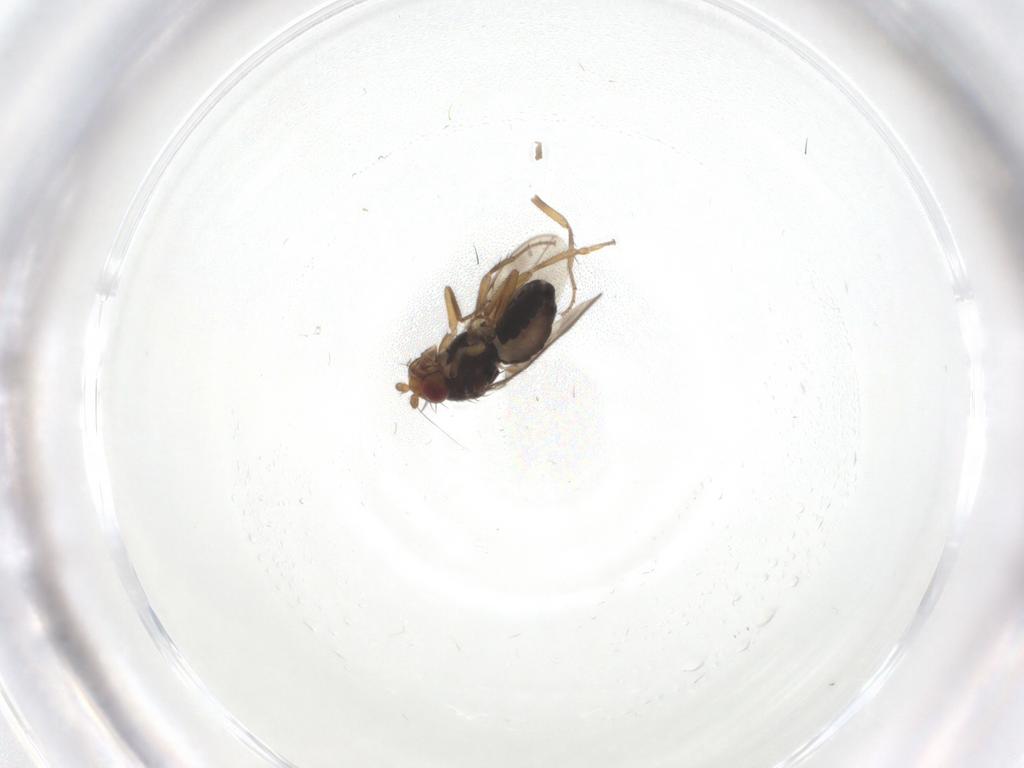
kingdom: Animalia
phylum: Arthropoda
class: Insecta
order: Diptera
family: Sphaeroceridae
